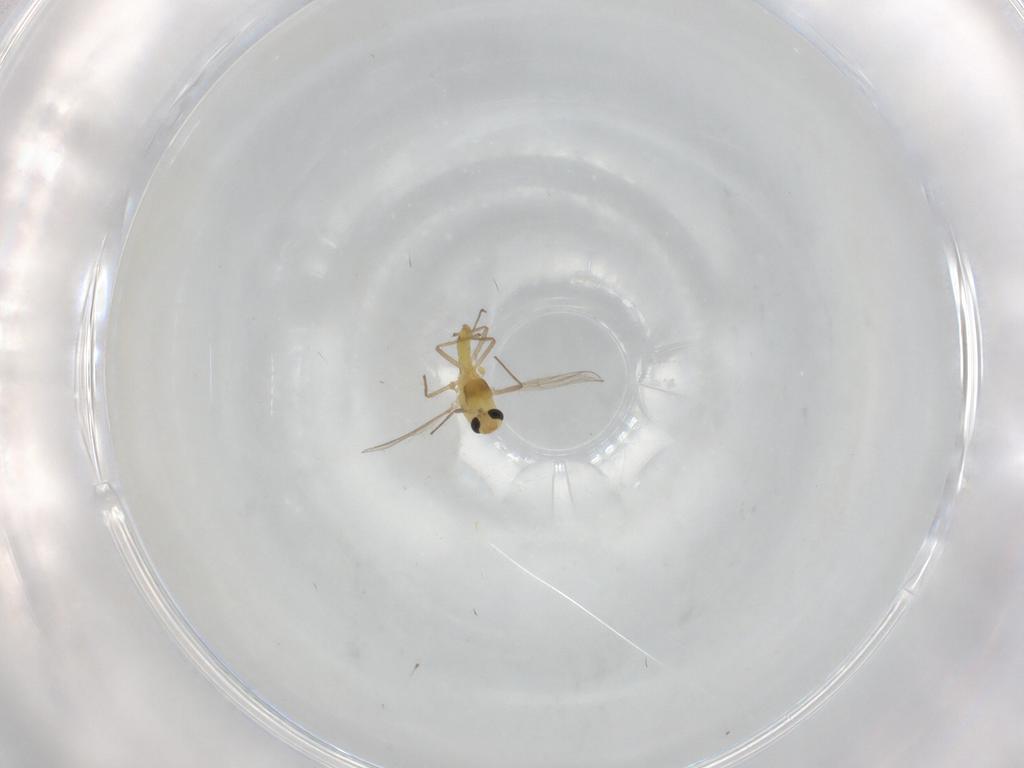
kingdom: Animalia
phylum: Arthropoda
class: Insecta
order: Diptera
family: Chironomidae
